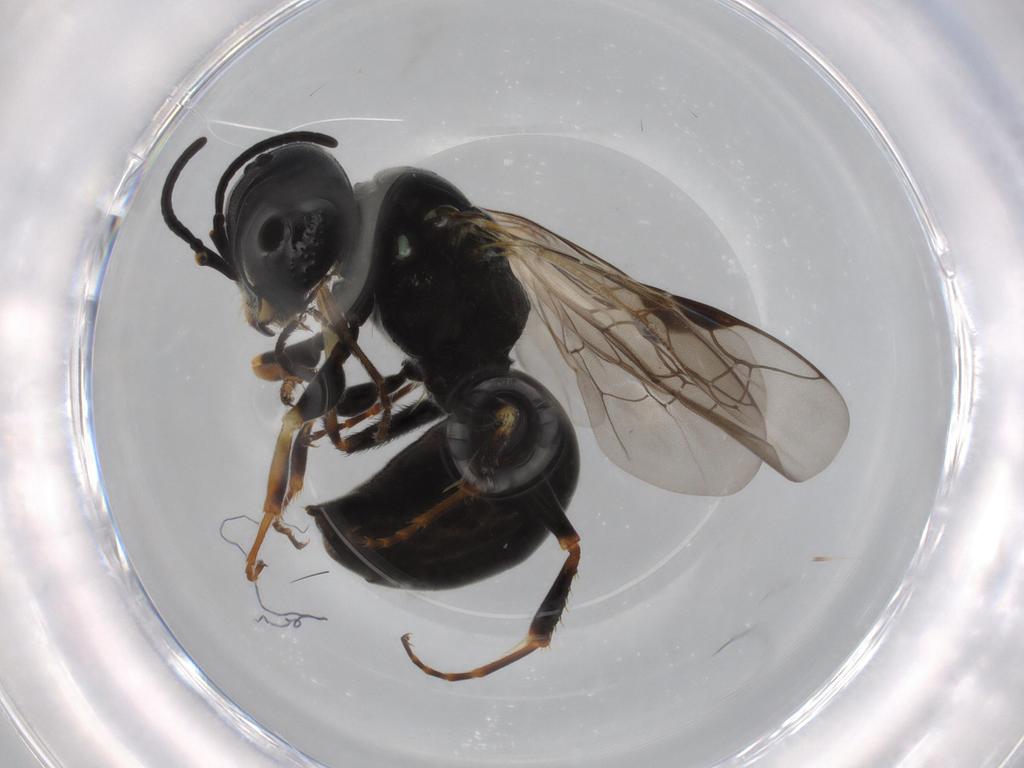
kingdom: Animalia
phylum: Arthropoda
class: Insecta
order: Hymenoptera
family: Crabronidae
